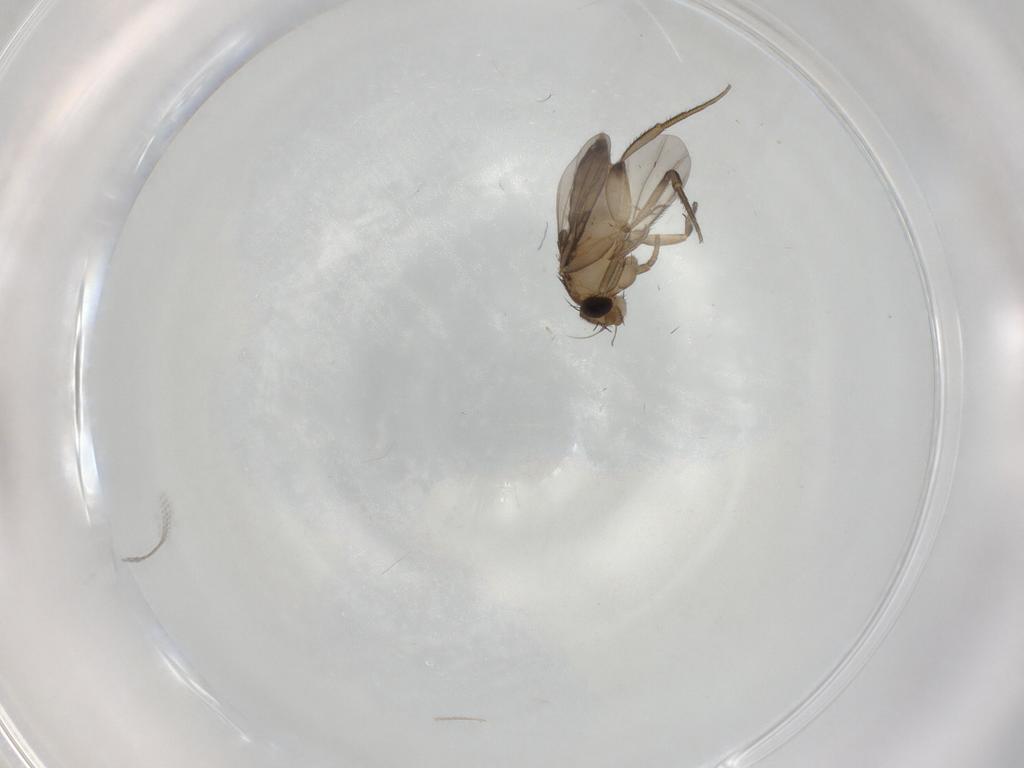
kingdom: Animalia
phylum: Arthropoda
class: Insecta
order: Diptera
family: Phoridae
